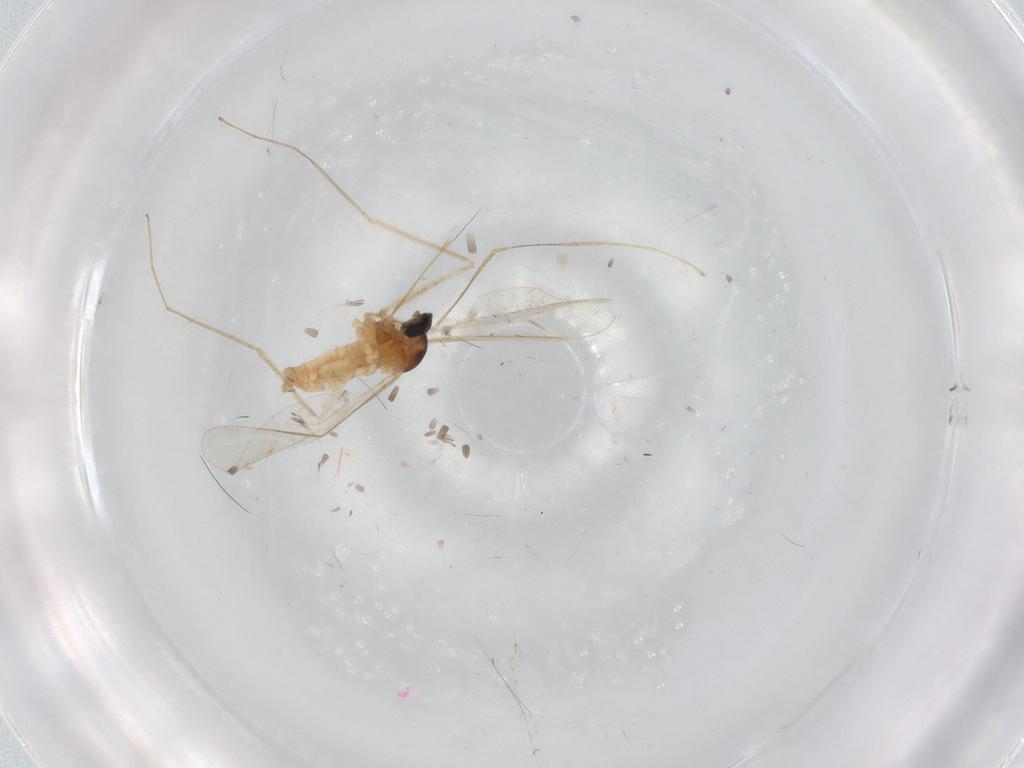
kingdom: Animalia
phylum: Arthropoda
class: Insecta
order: Diptera
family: Cecidomyiidae
